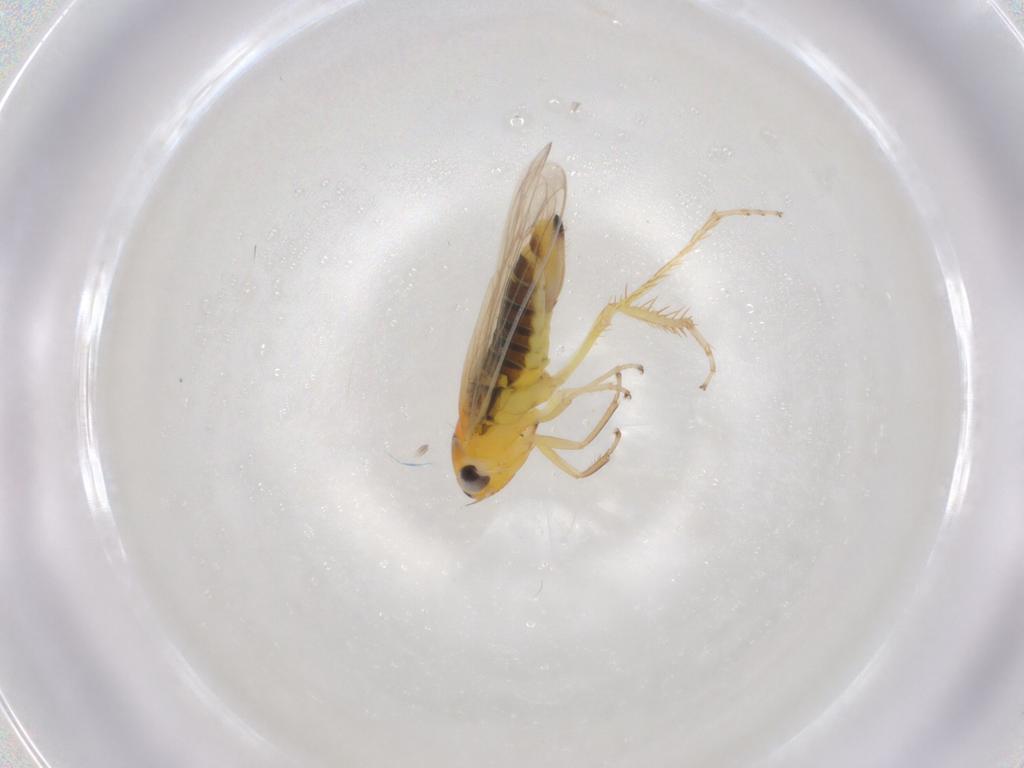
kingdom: Animalia
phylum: Arthropoda
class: Insecta
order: Hemiptera
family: Cicadellidae
